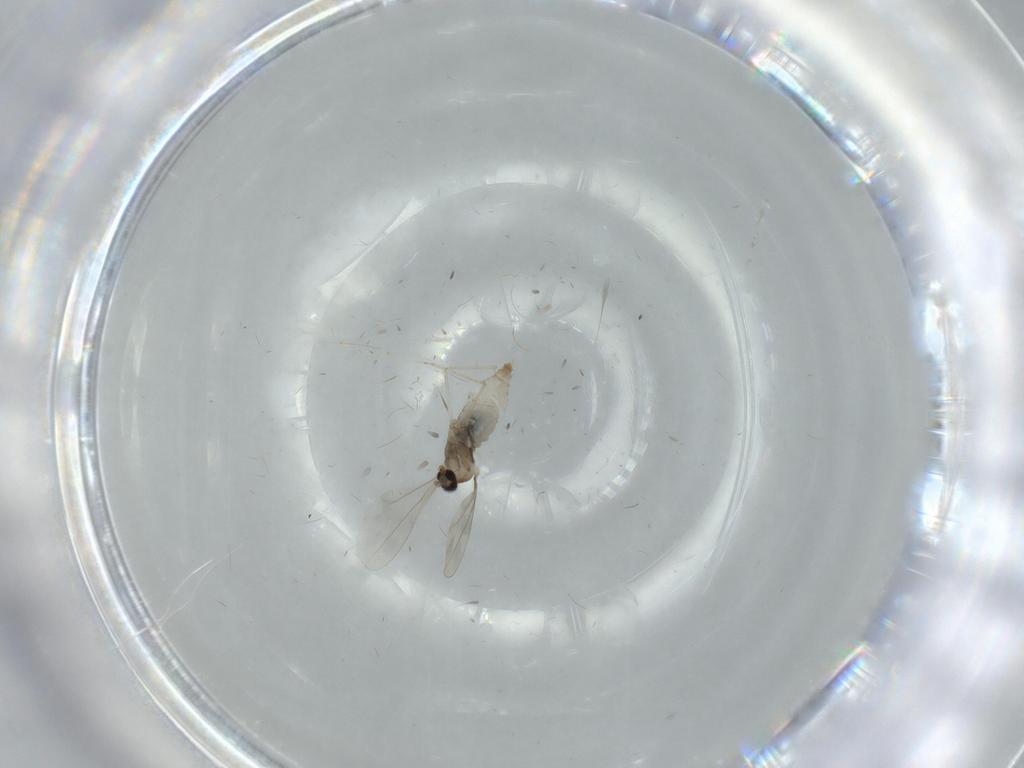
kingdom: Animalia
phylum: Arthropoda
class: Insecta
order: Diptera
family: Cecidomyiidae
